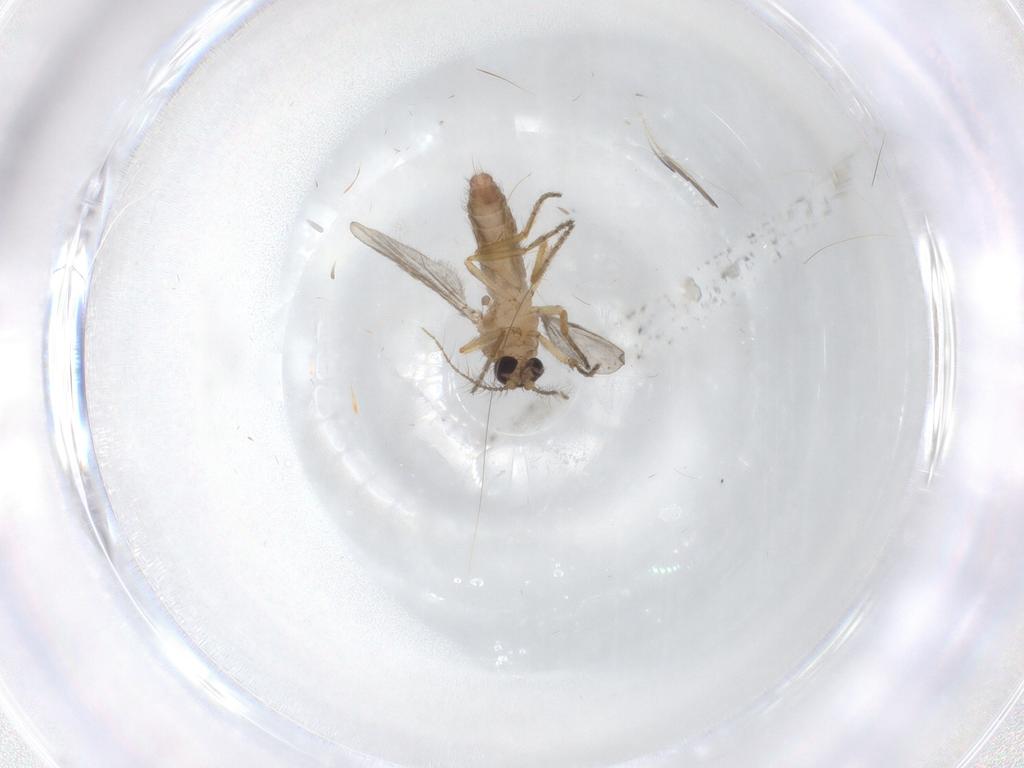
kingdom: Animalia
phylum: Arthropoda
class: Insecta
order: Diptera
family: Ceratopogonidae
